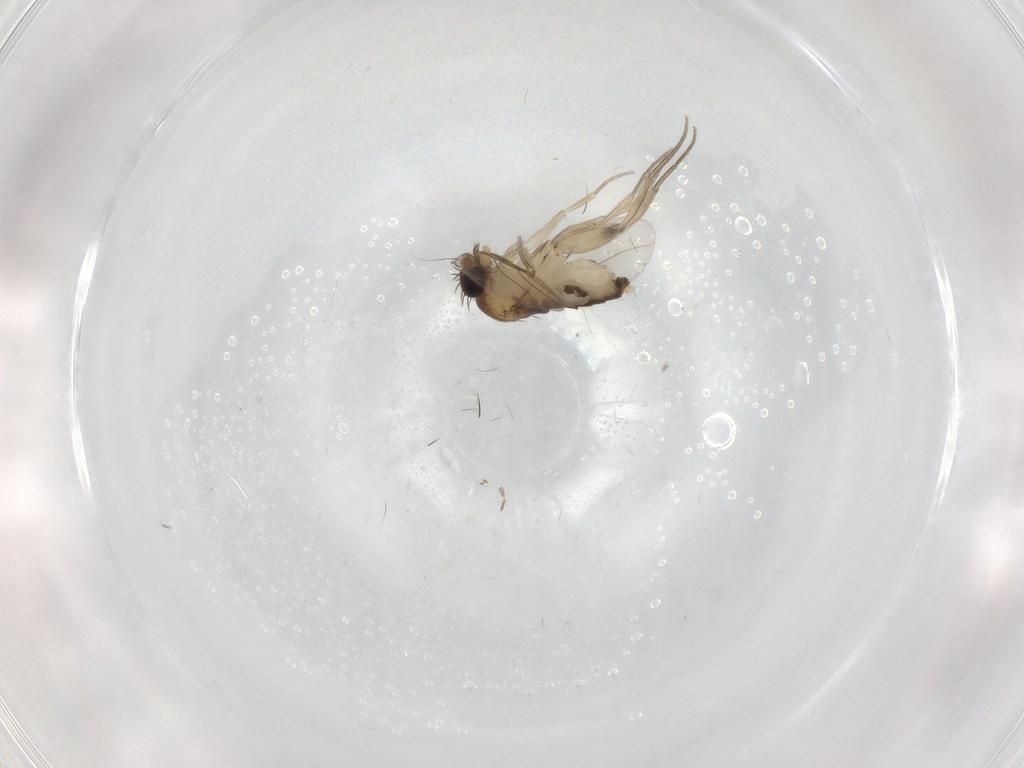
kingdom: Animalia
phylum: Arthropoda
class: Insecta
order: Diptera
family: Phoridae
